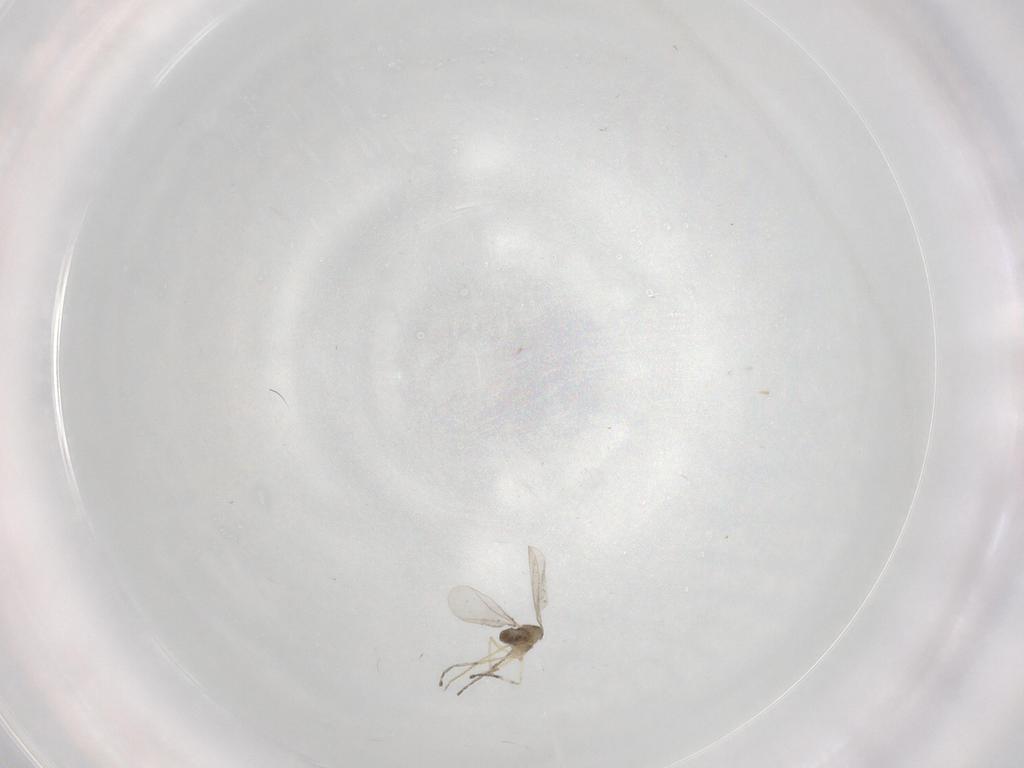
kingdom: Animalia
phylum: Arthropoda
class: Insecta
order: Diptera
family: Cecidomyiidae
